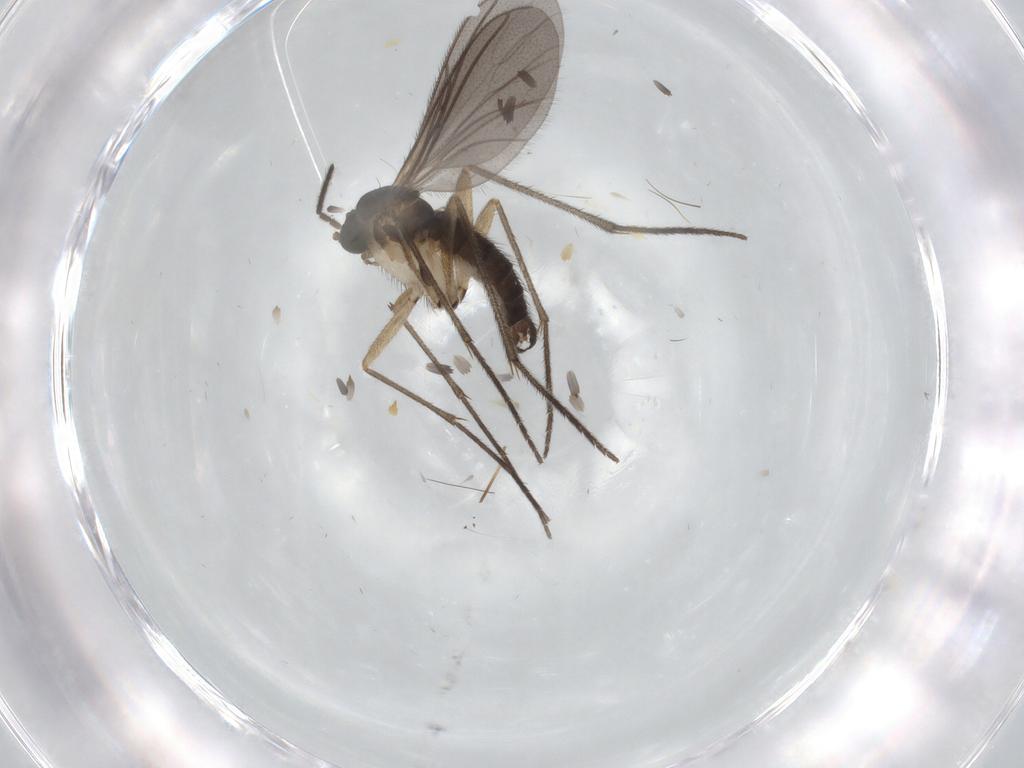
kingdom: Animalia
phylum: Arthropoda
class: Insecta
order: Diptera
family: Sciaridae
